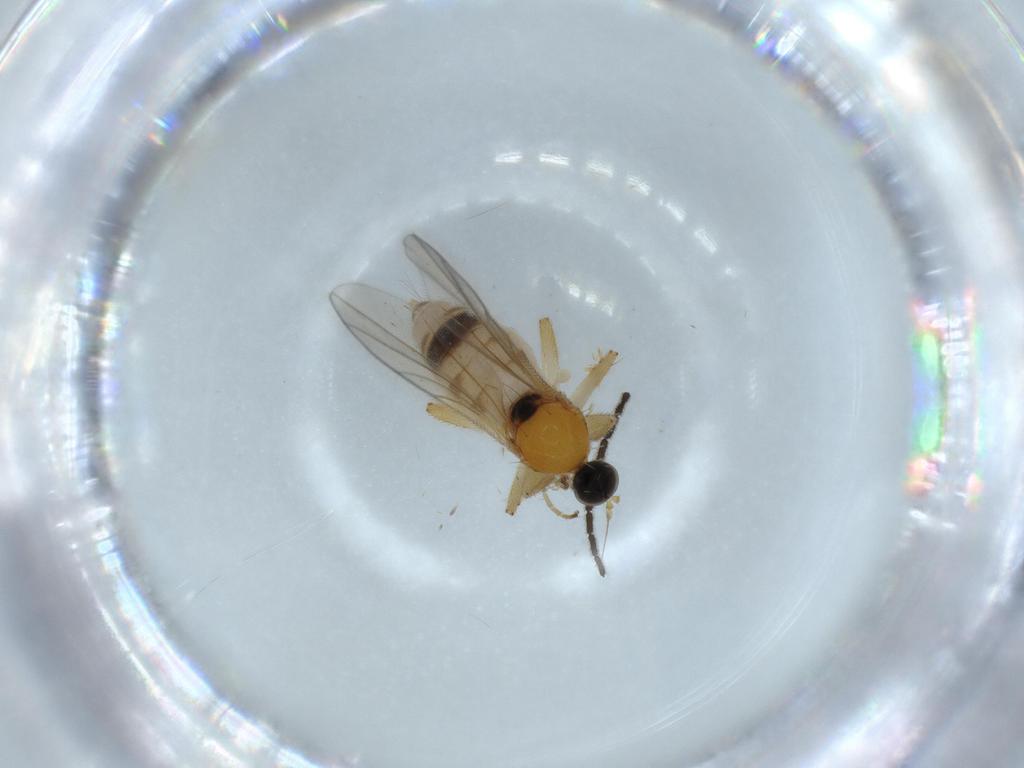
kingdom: Animalia
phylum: Arthropoda
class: Insecta
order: Diptera
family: Hybotidae
